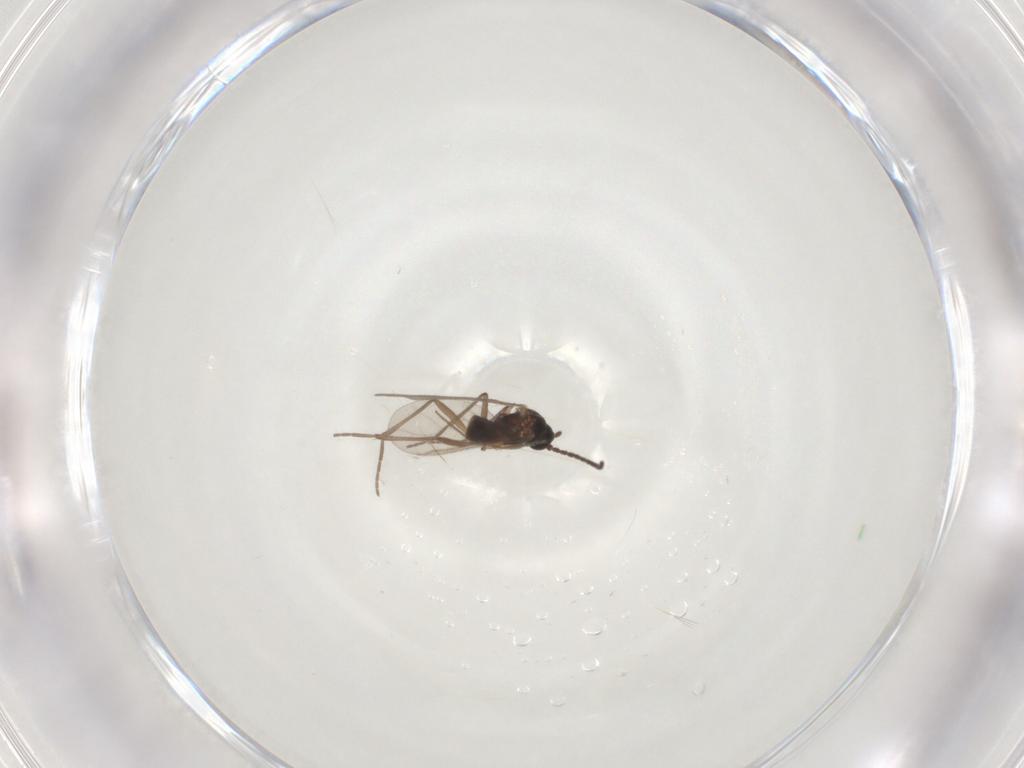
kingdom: Animalia
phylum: Arthropoda
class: Insecta
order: Diptera
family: Sciaridae
